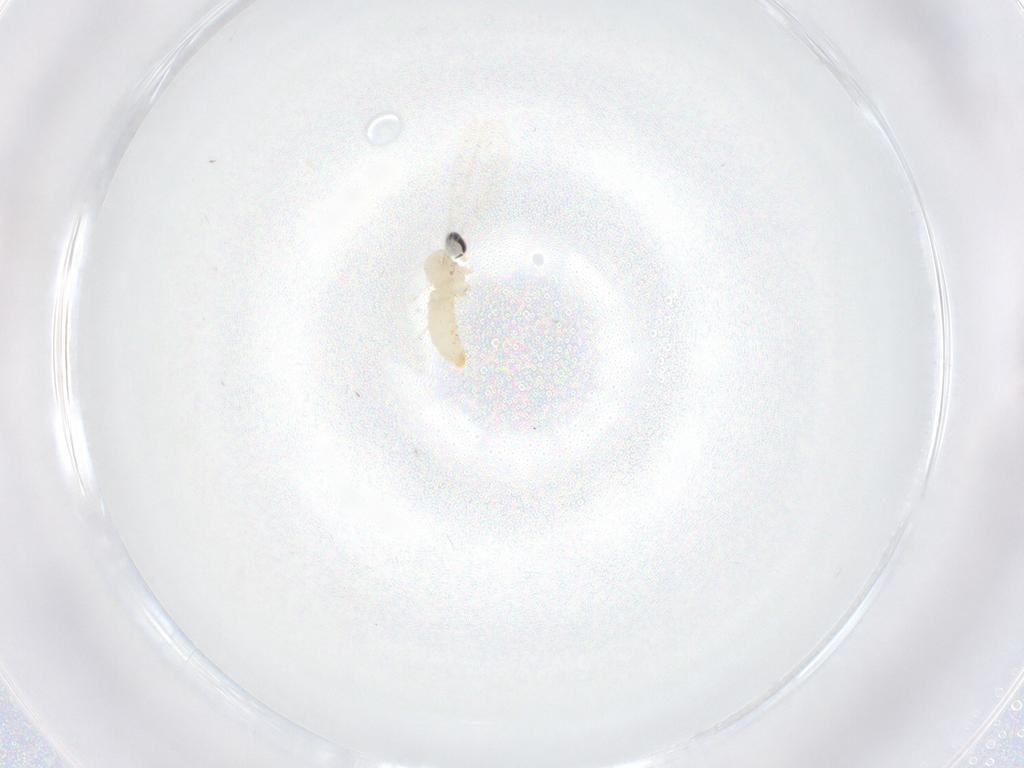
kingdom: Animalia
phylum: Arthropoda
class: Insecta
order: Diptera
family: Cecidomyiidae
